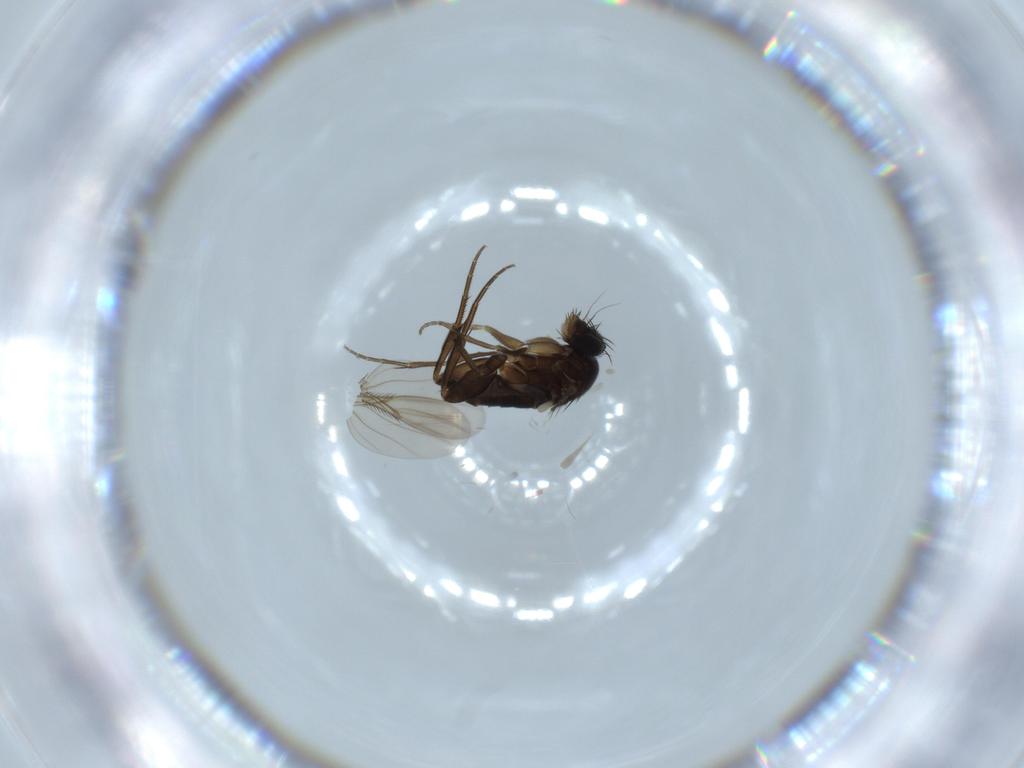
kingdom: Animalia
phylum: Arthropoda
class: Insecta
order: Diptera
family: Phoridae
